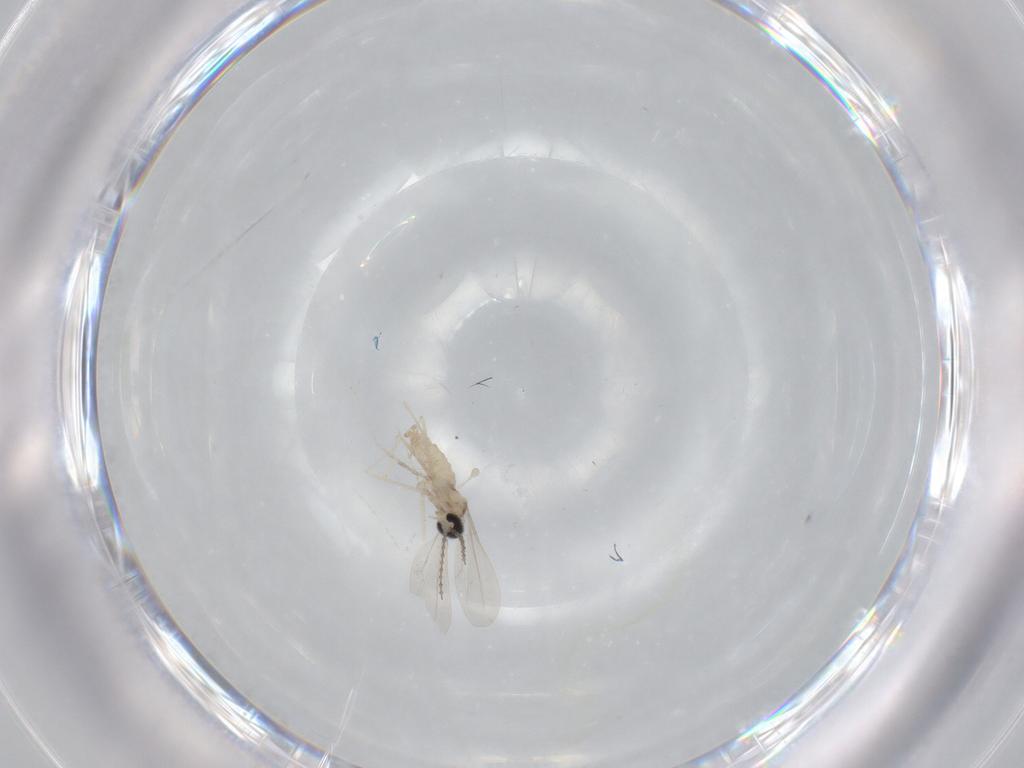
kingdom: Animalia
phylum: Arthropoda
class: Insecta
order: Diptera
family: Cecidomyiidae
